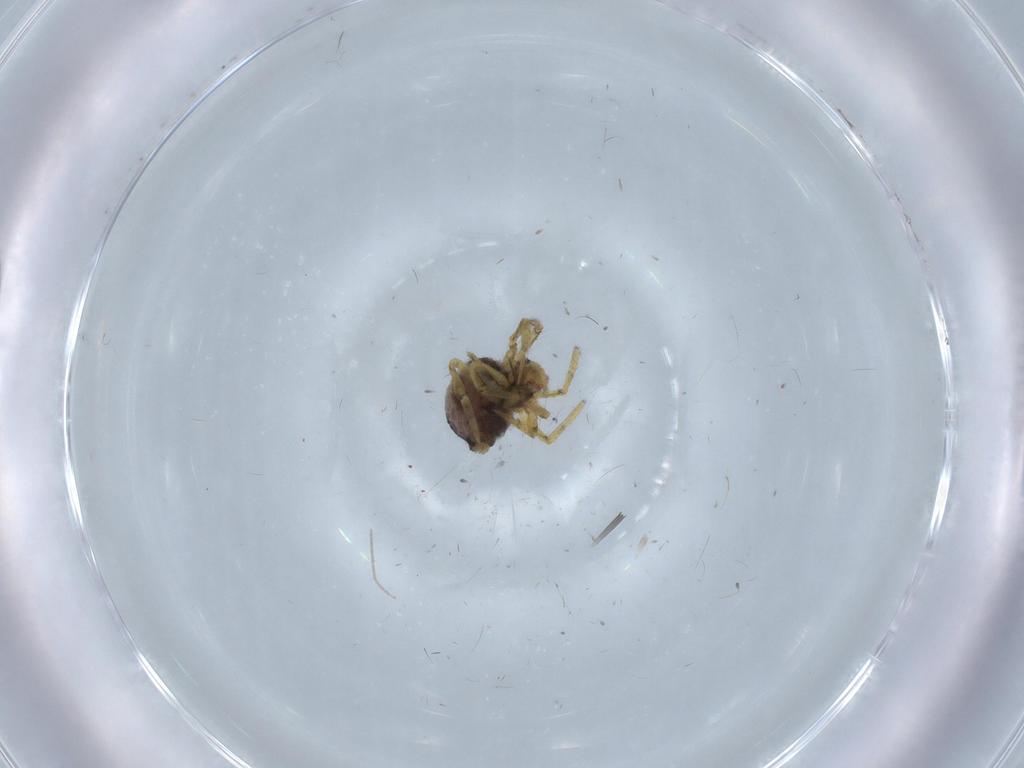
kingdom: Animalia
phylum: Arthropoda
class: Arachnida
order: Araneae
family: Theridiidae
